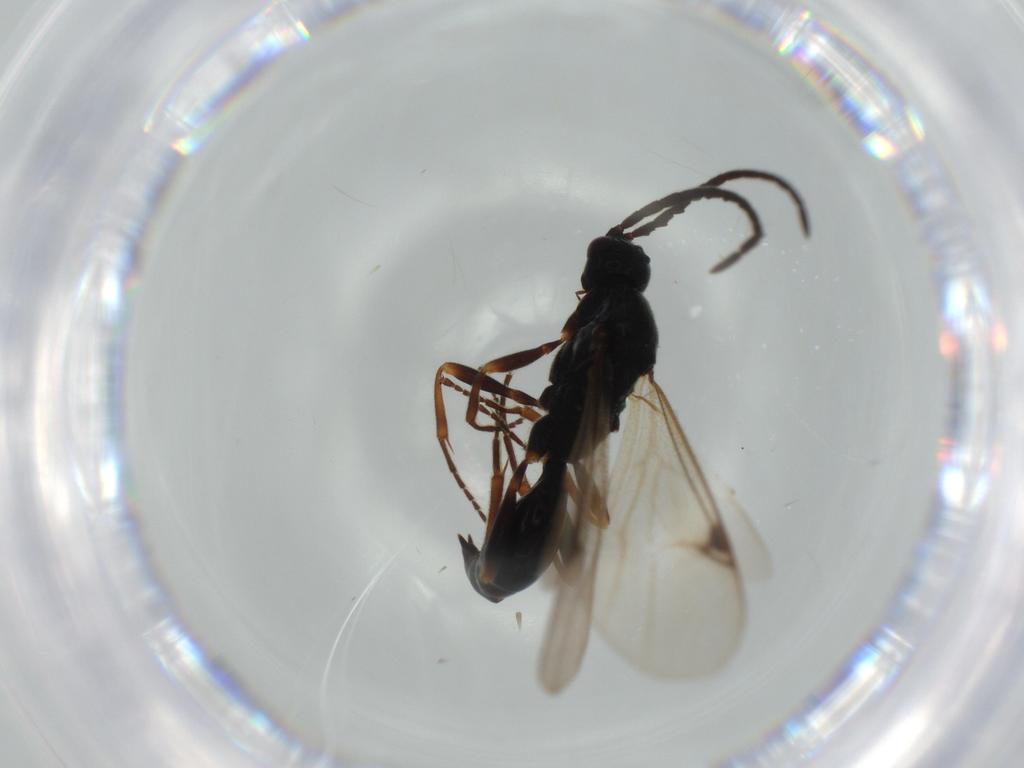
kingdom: Animalia
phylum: Arthropoda
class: Insecta
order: Hymenoptera
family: Proctotrupidae
